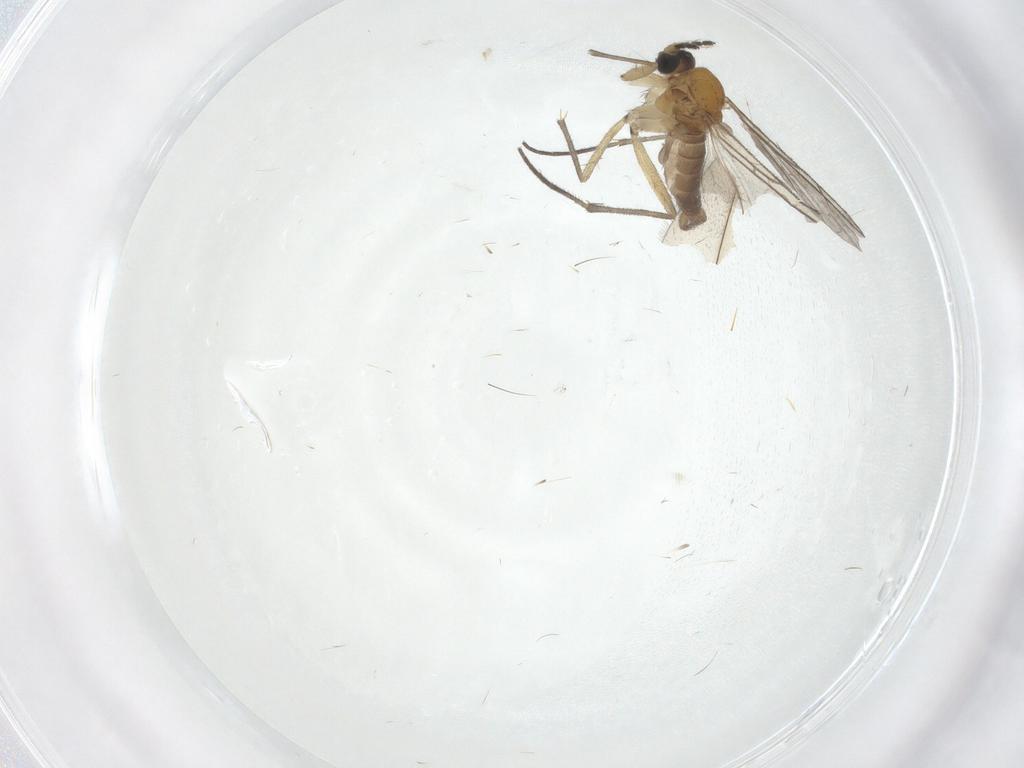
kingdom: Animalia
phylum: Arthropoda
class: Insecta
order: Diptera
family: Sciaridae
